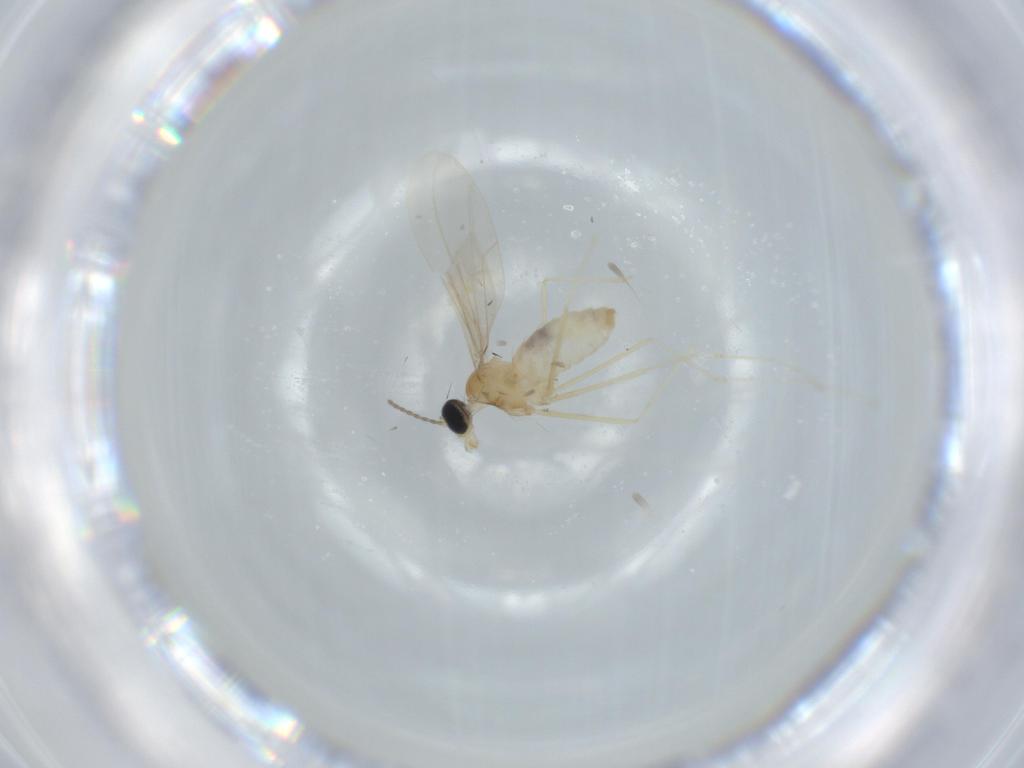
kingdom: Animalia
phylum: Arthropoda
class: Insecta
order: Diptera
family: Cecidomyiidae
